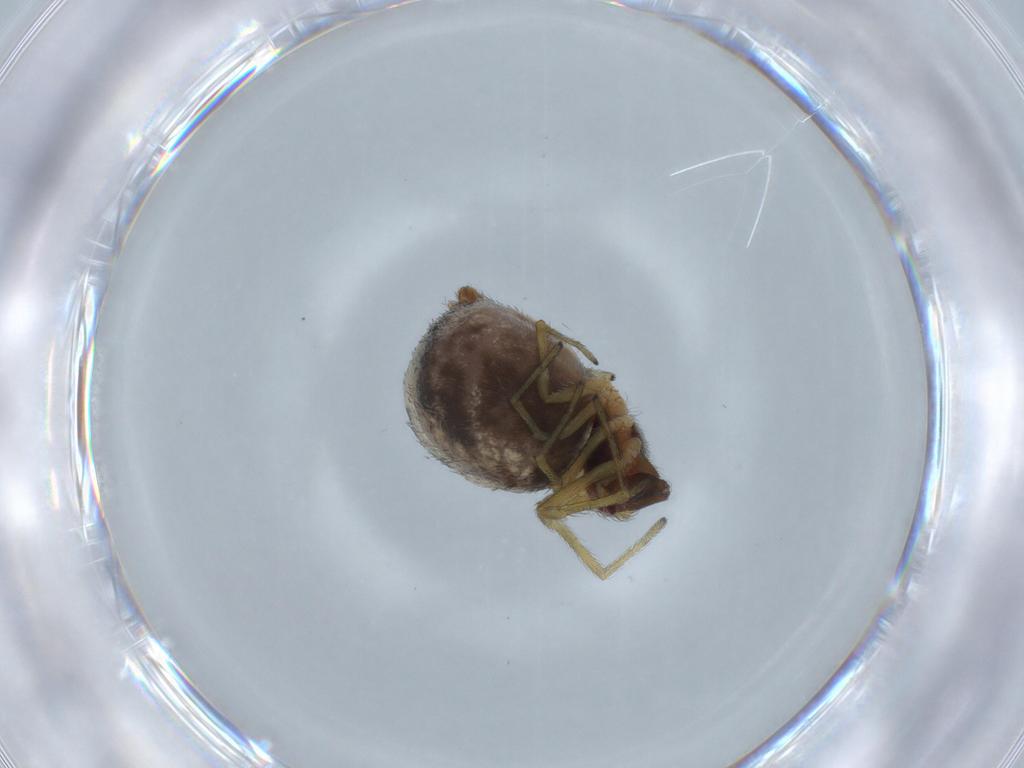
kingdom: Animalia
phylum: Arthropoda
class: Arachnida
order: Araneae
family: Dictynidae
